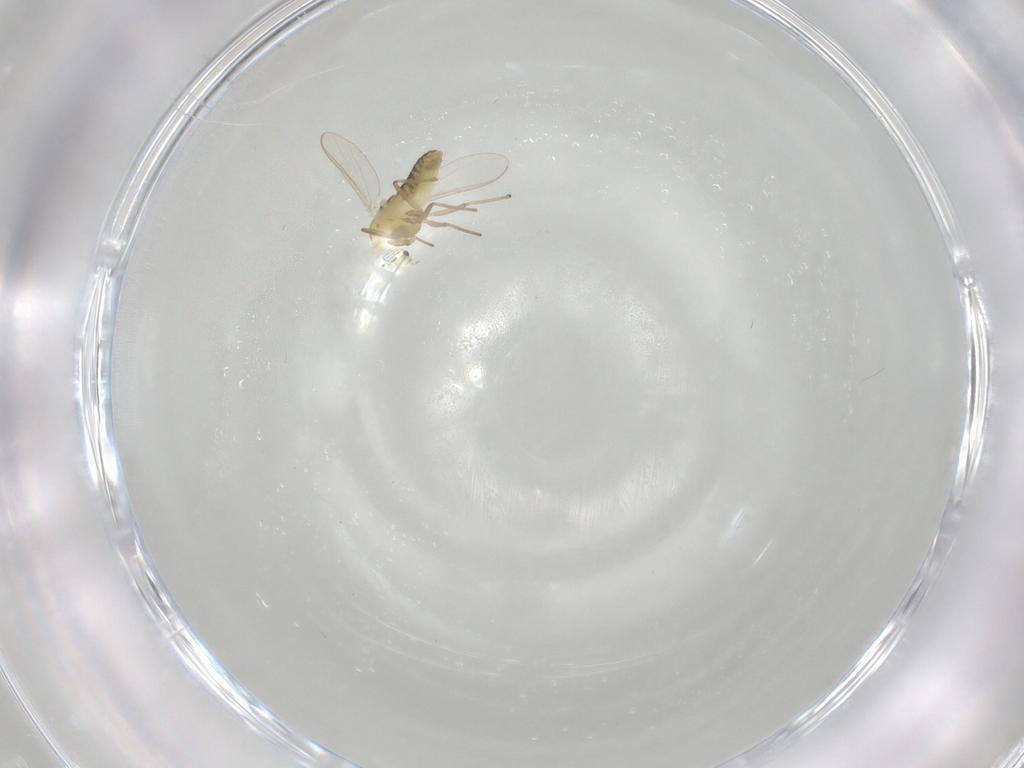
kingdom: Animalia
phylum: Arthropoda
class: Insecta
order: Diptera
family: Chironomidae
